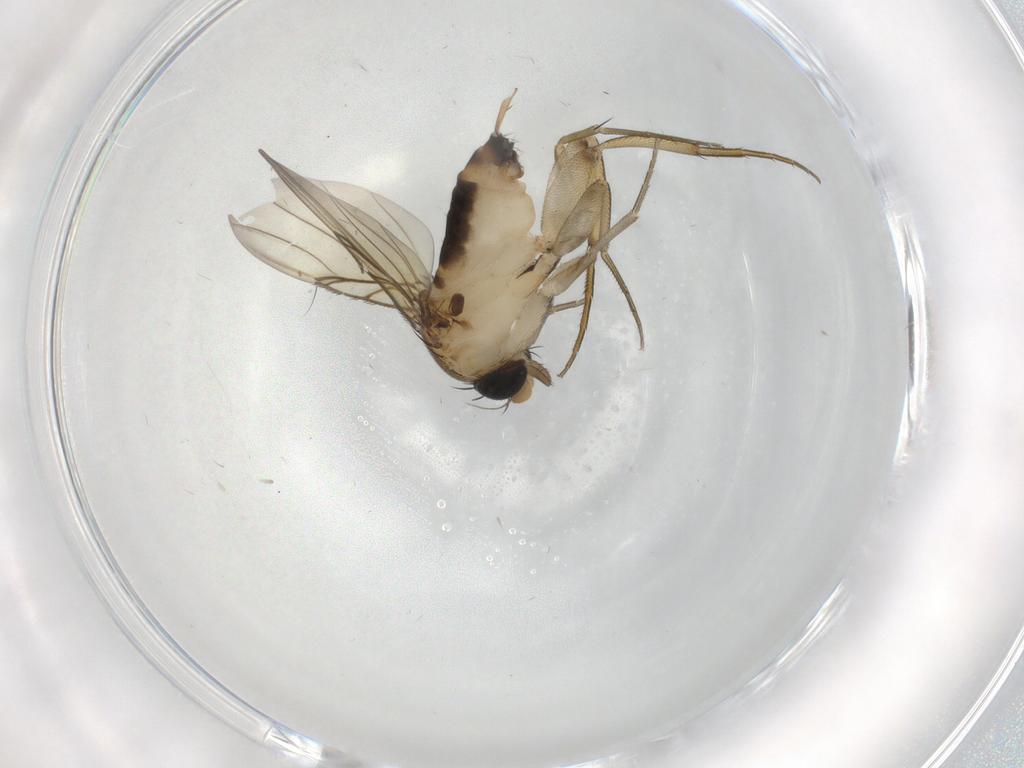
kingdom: Animalia
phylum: Arthropoda
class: Insecta
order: Diptera
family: Phoridae
